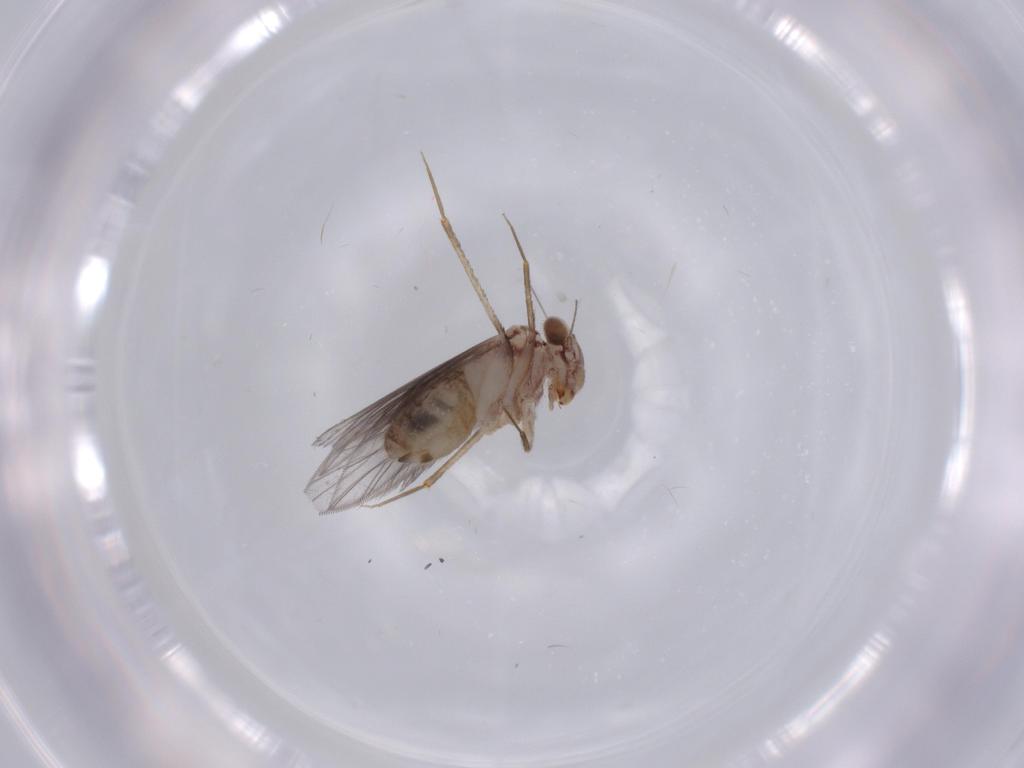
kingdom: Animalia
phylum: Arthropoda
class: Insecta
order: Psocodea
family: Lepidopsocidae
